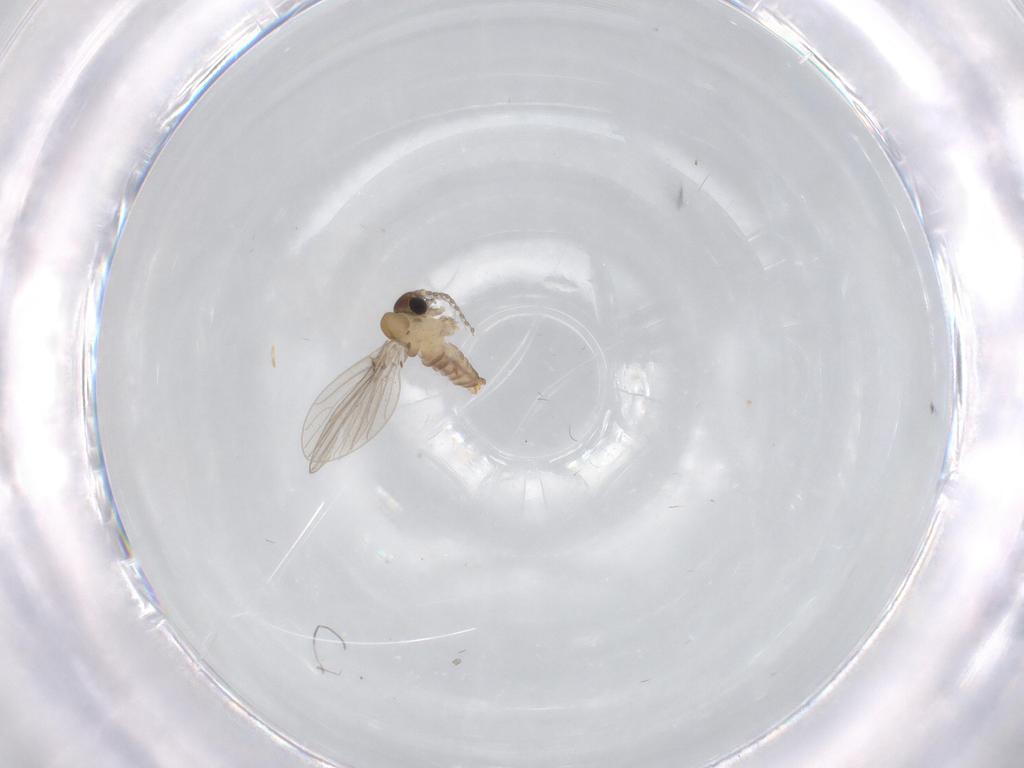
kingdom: Animalia
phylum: Arthropoda
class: Insecta
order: Diptera
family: Psychodidae
